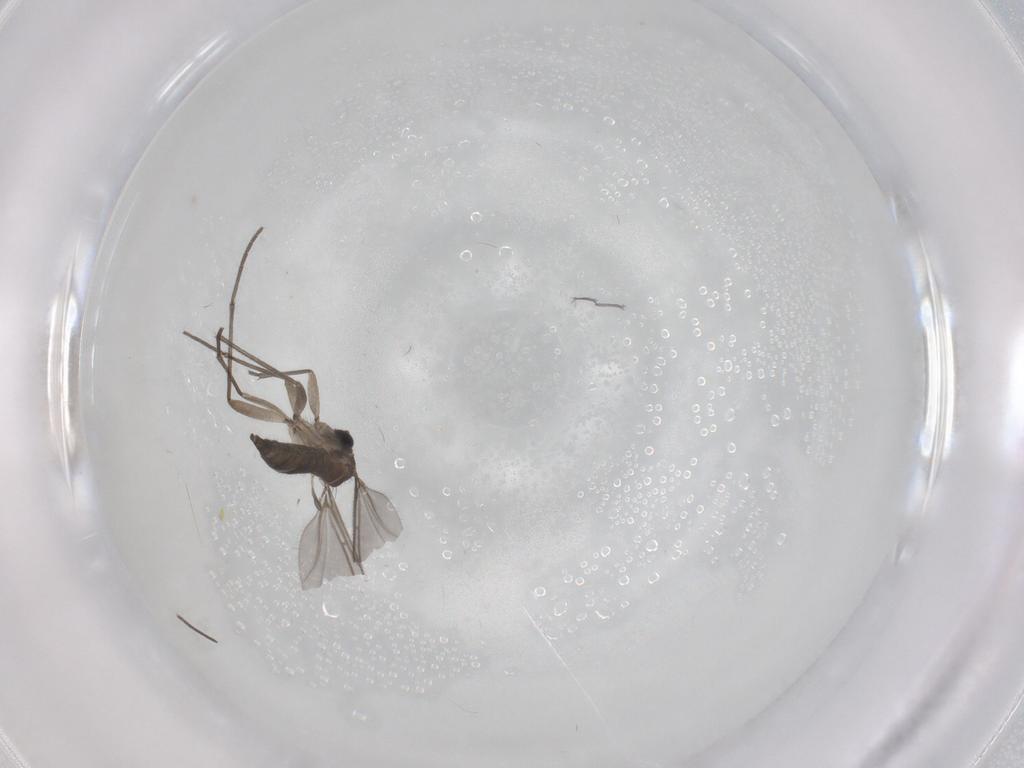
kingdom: Animalia
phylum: Arthropoda
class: Insecta
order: Diptera
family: Sciaridae
